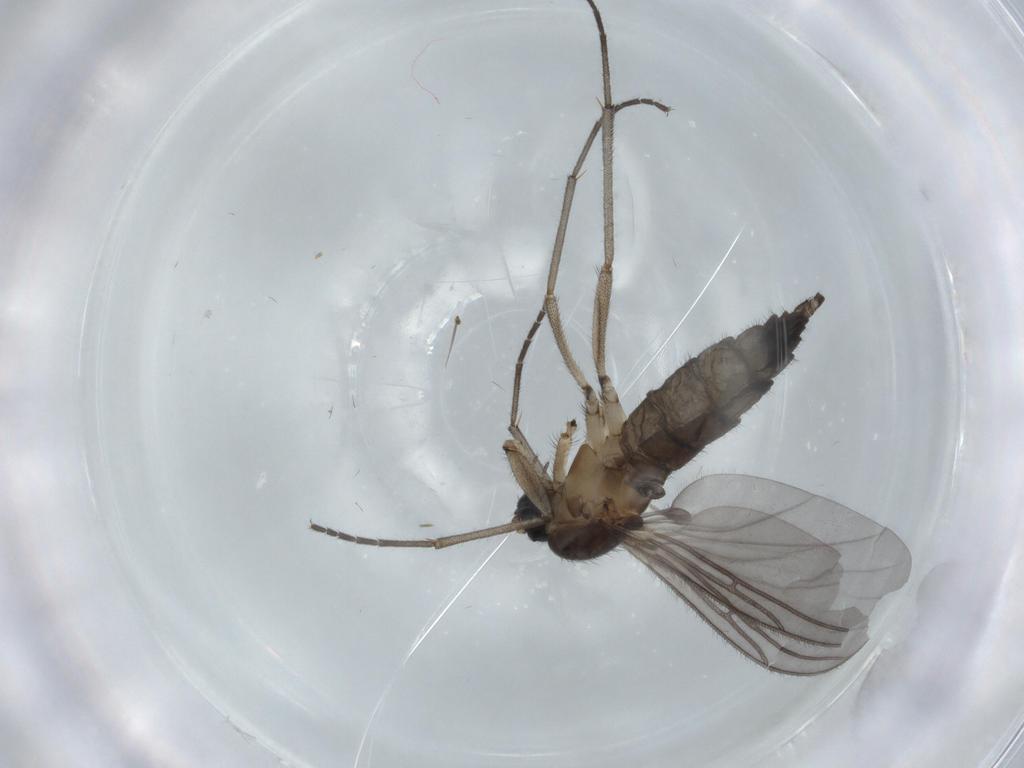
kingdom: Animalia
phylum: Arthropoda
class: Insecta
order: Diptera
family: Sciaridae
